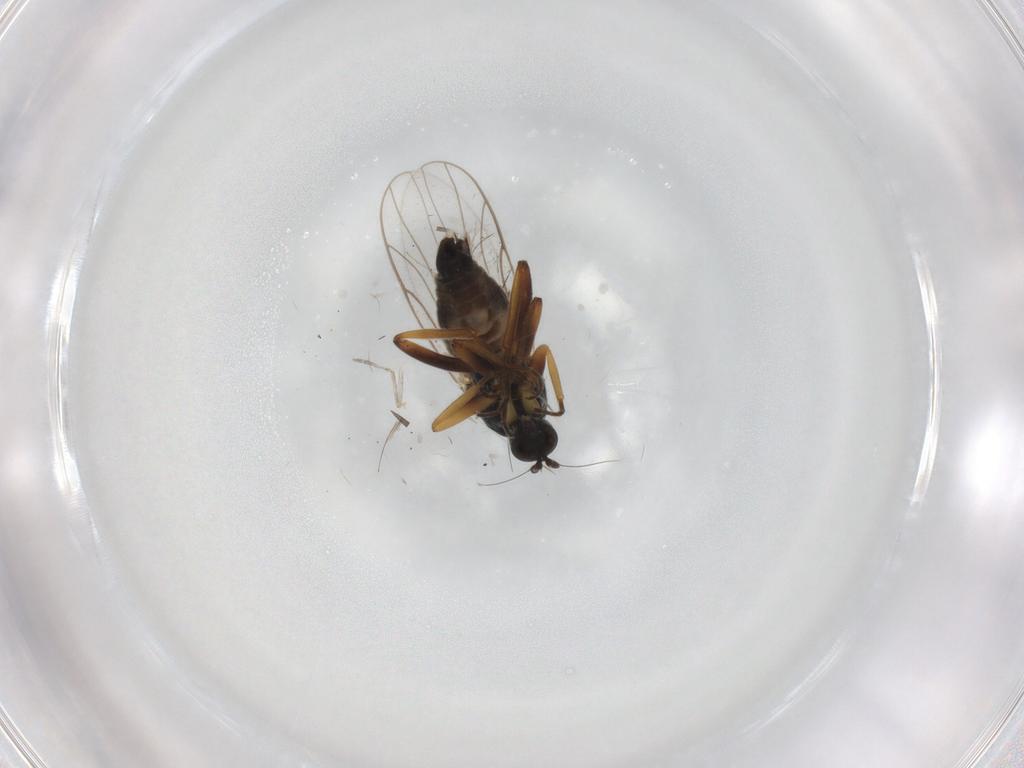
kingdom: Animalia
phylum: Arthropoda
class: Insecta
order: Diptera
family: Hybotidae
